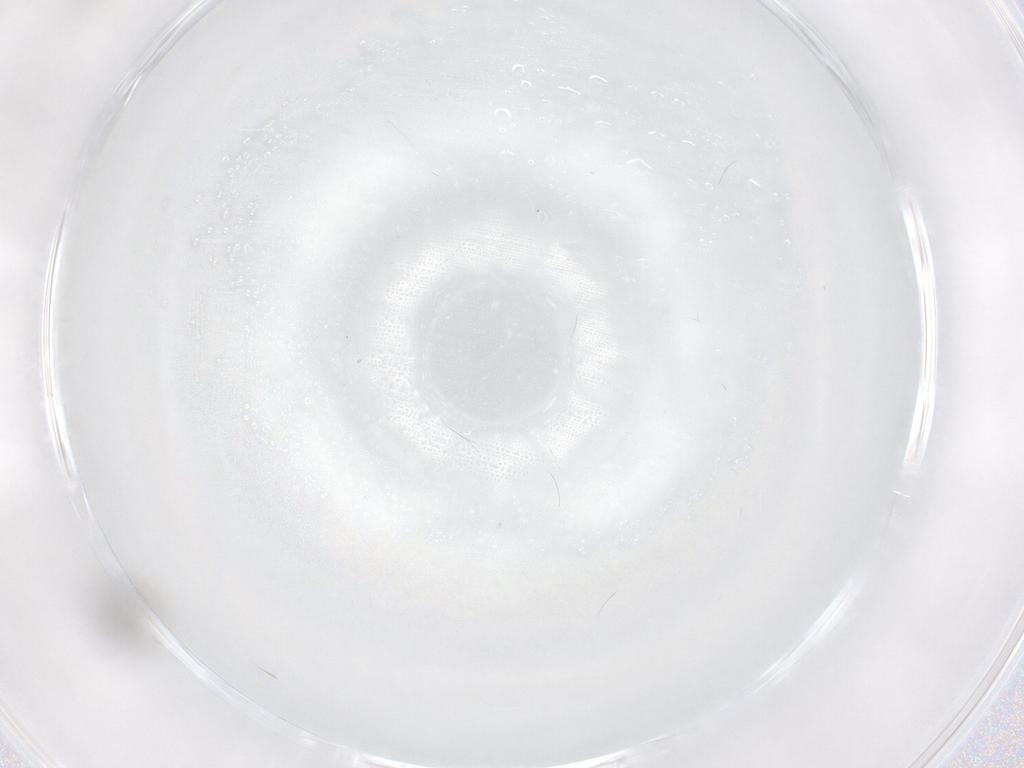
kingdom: Animalia
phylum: Arthropoda
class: Insecta
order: Hymenoptera
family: Mymaridae
